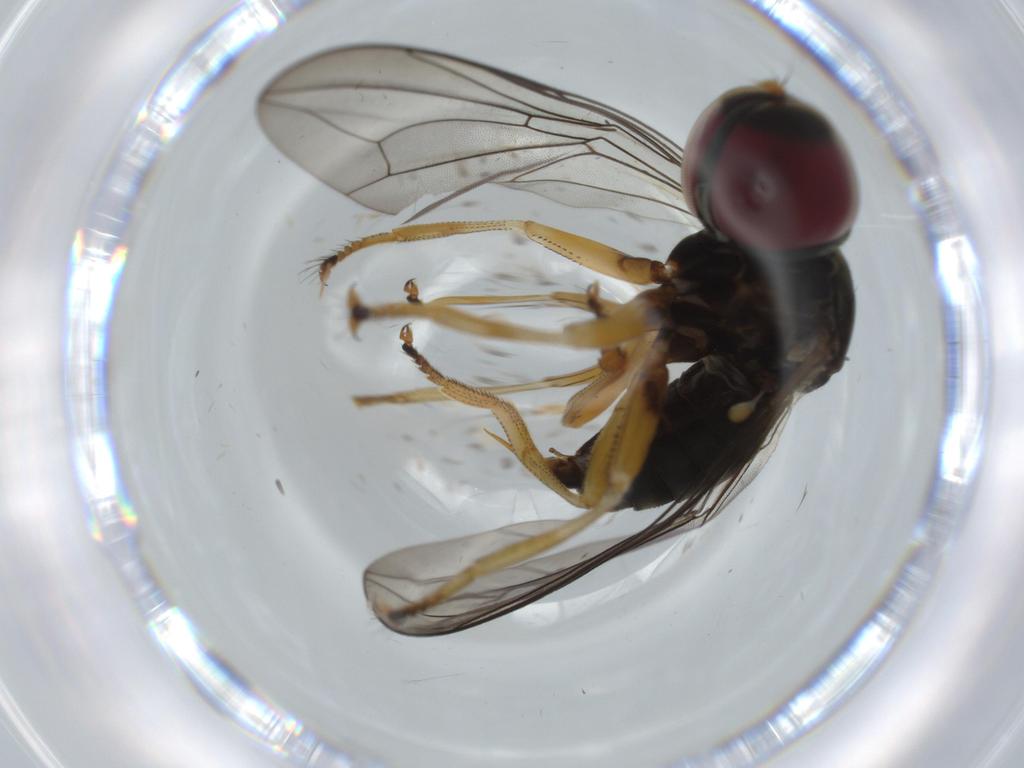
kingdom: Animalia
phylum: Arthropoda
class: Insecta
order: Diptera
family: Pipunculidae
